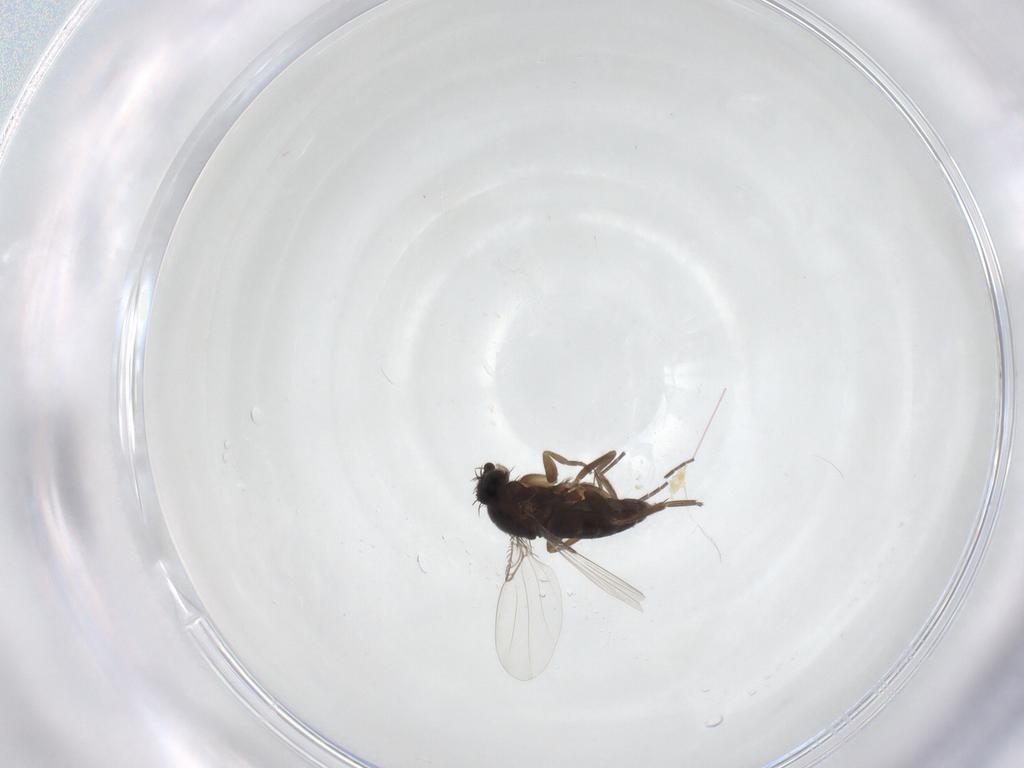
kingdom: Animalia
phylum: Arthropoda
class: Insecta
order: Diptera
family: Phoridae
